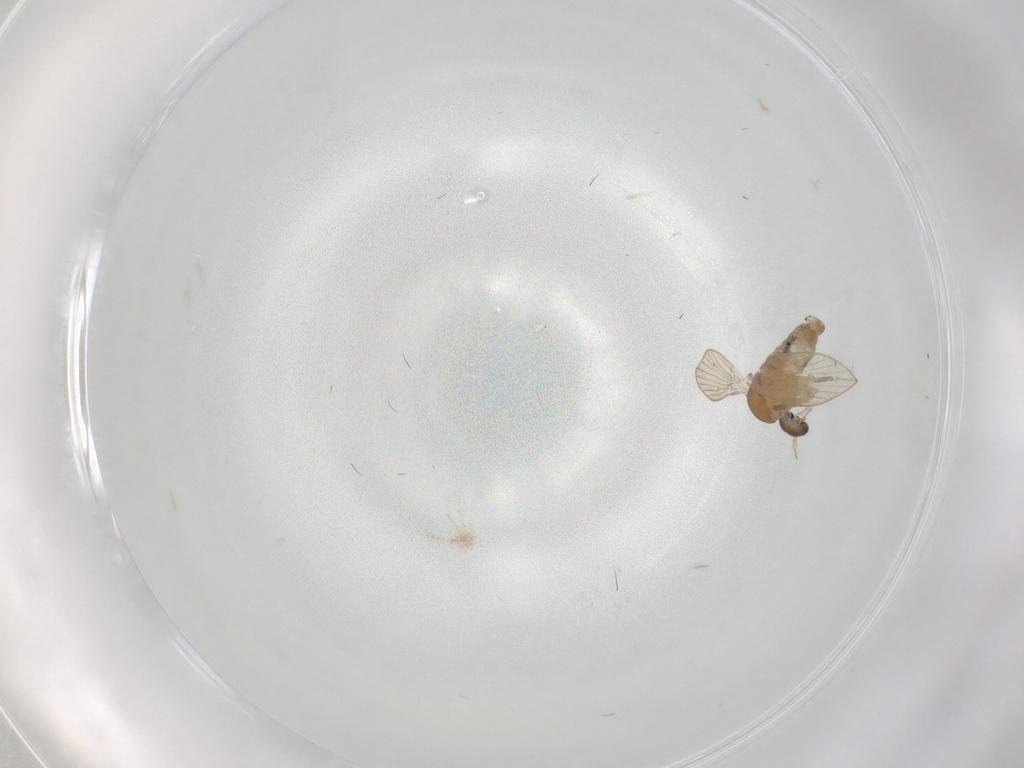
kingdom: Animalia
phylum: Arthropoda
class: Insecta
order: Diptera
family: Psychodidae
